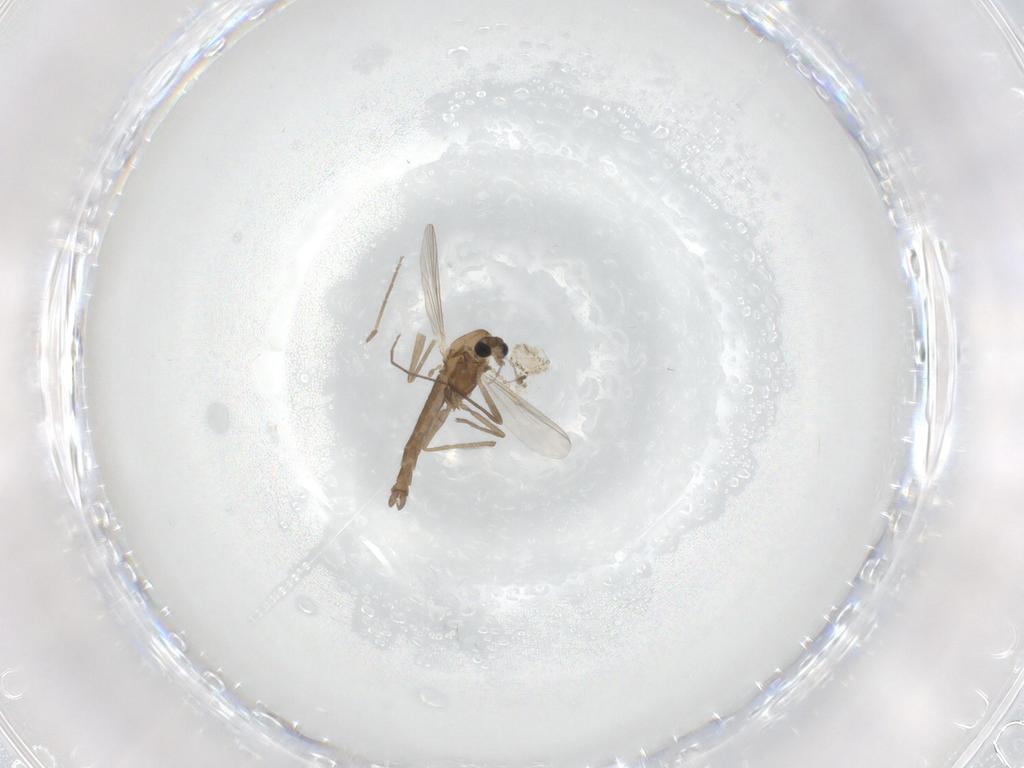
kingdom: Animalia
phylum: Arthropoda
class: Insecta
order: Diptera
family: Chironomidae
